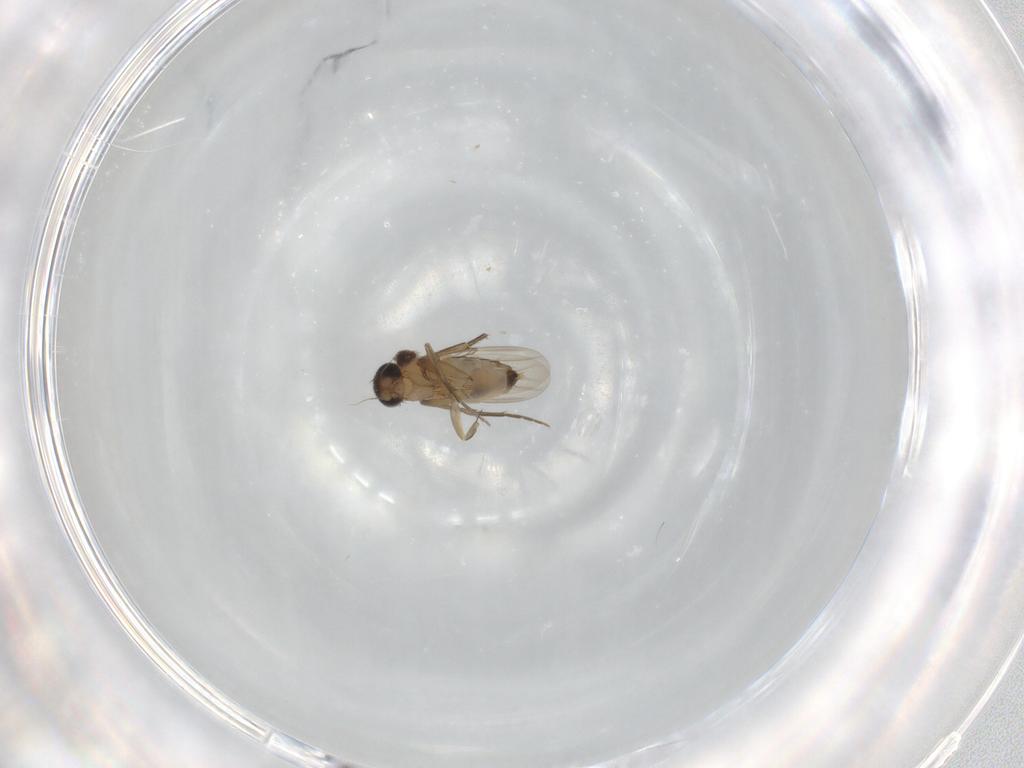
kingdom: Animalia
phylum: Arthropoda
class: Insecta
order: Diptera
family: Phoridae
